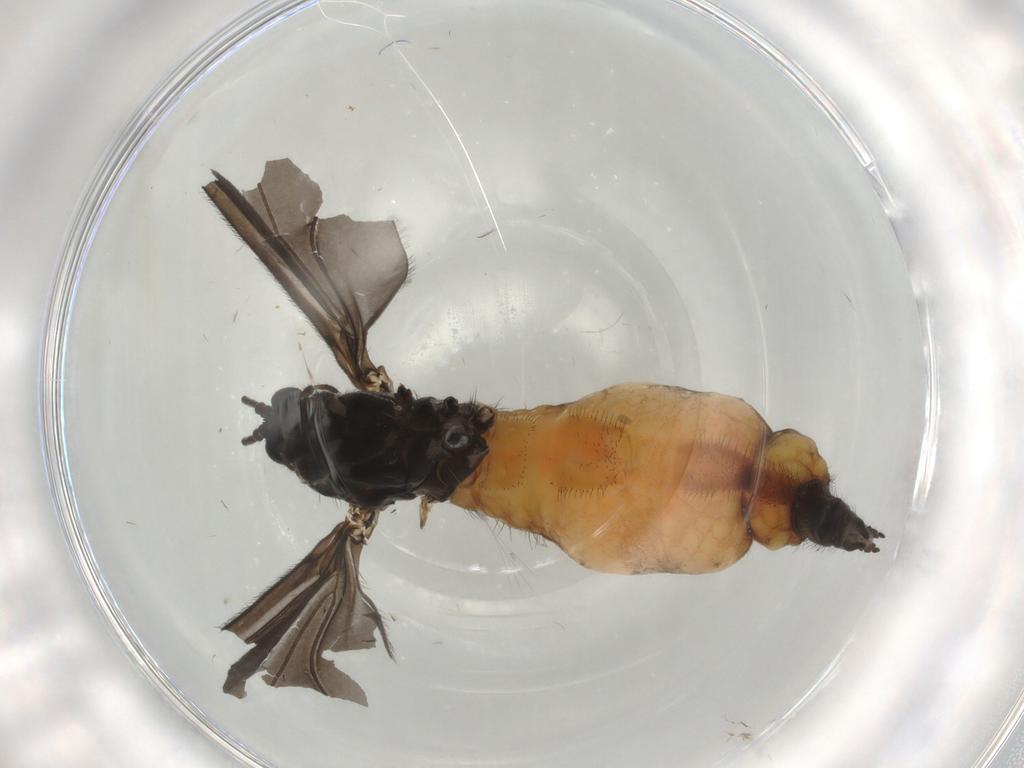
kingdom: Animalia
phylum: Arthropoda
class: Insecta
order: Diptera
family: Sciaridae
